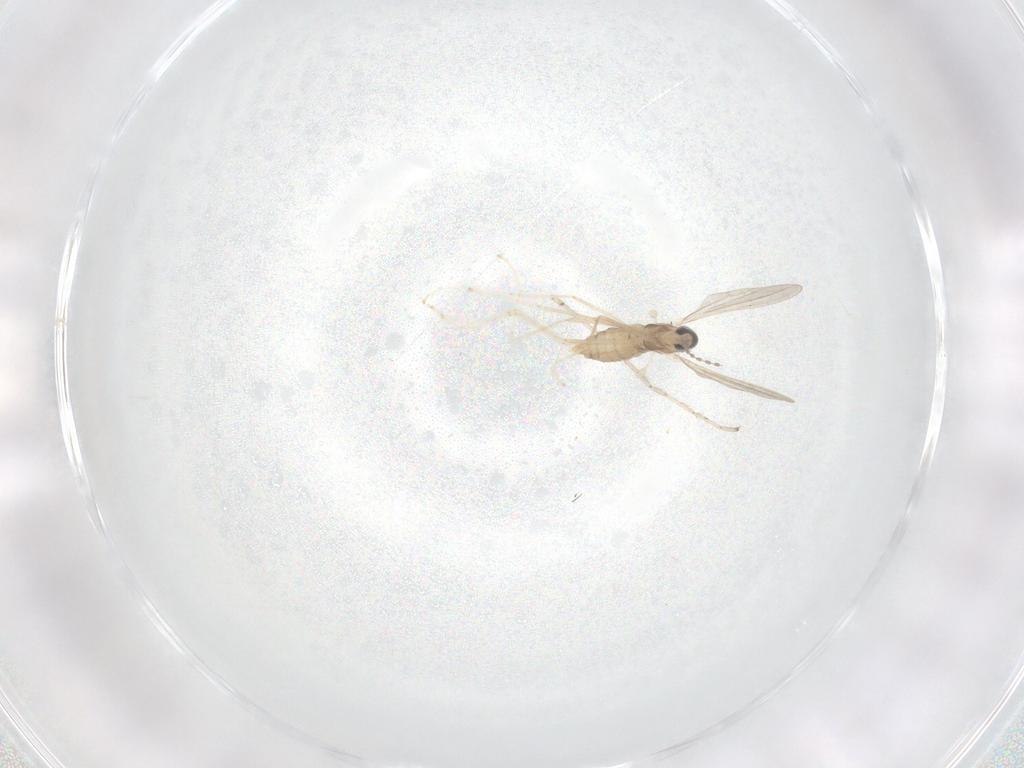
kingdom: Animalia
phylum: Arthropoda
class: Insecta
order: Diptera
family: Cecidomyiidae
